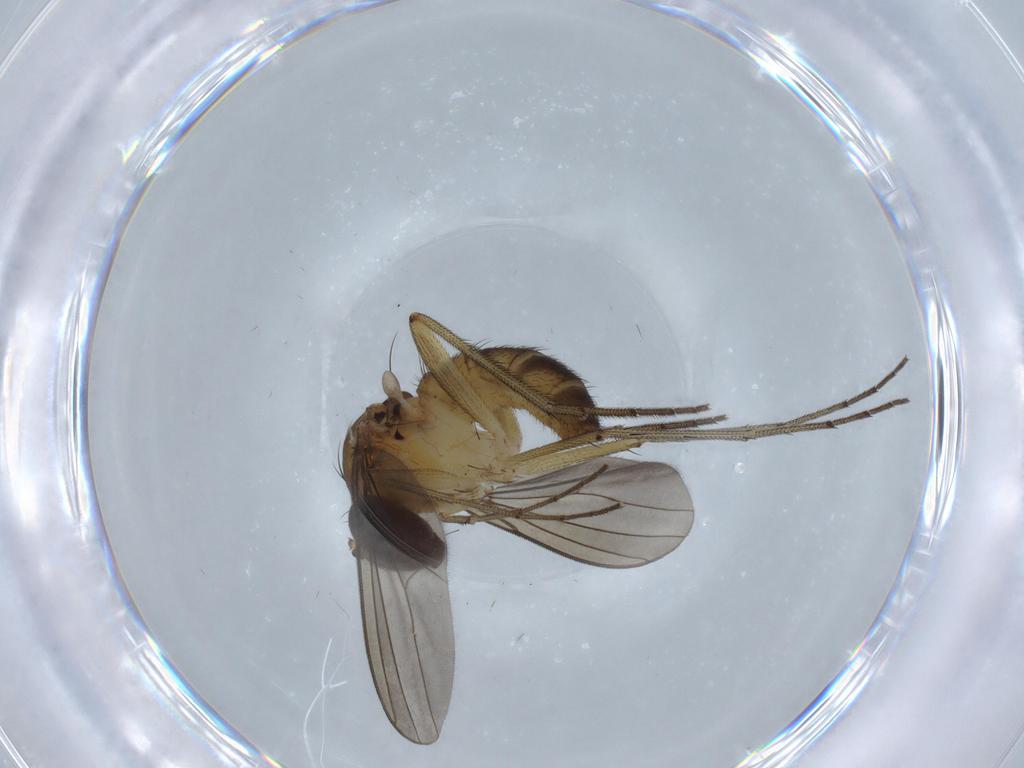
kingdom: Animalia
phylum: Arthropoda
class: Insecta
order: Diptera
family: Dolichopodidae
